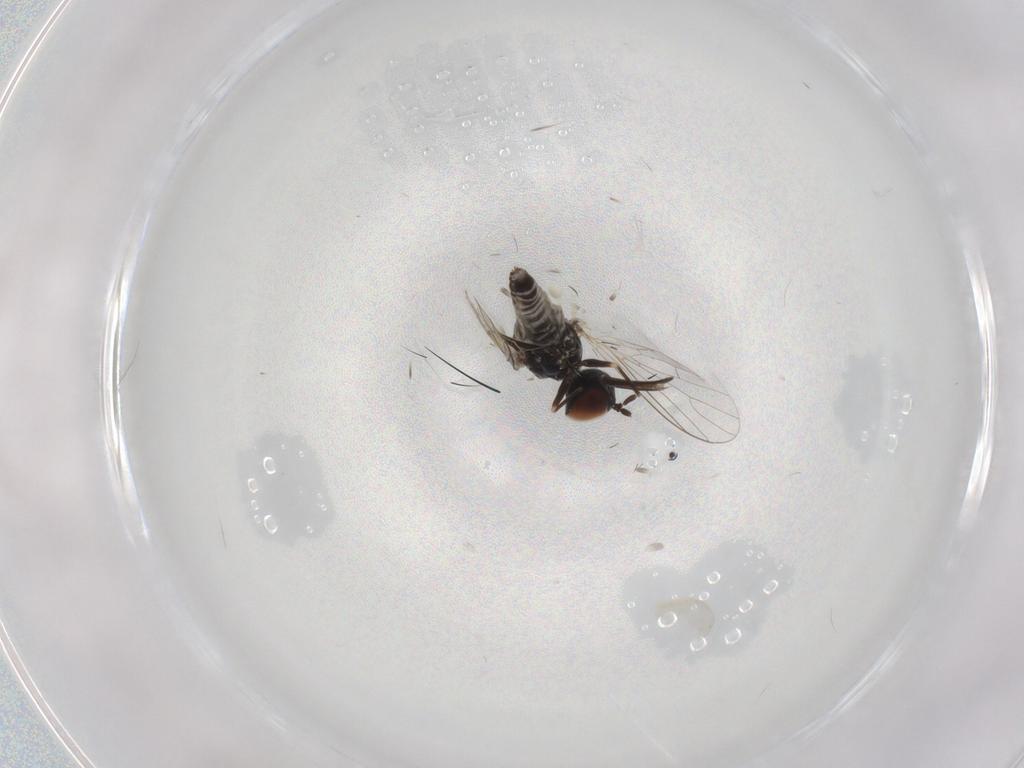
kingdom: Animalia
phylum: Arthropoda
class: Insecta
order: Diptera
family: Bombyliidae
